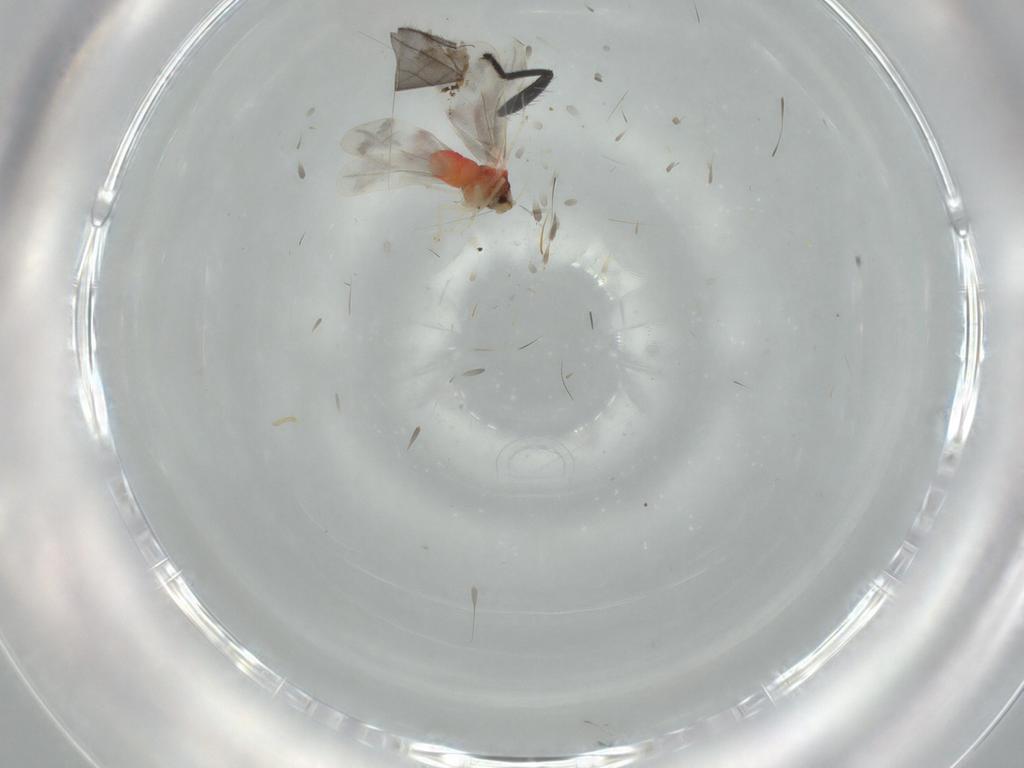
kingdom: Animalia
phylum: Arthropoda
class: Insecta
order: Hemiptera
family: Aleyrodidae
